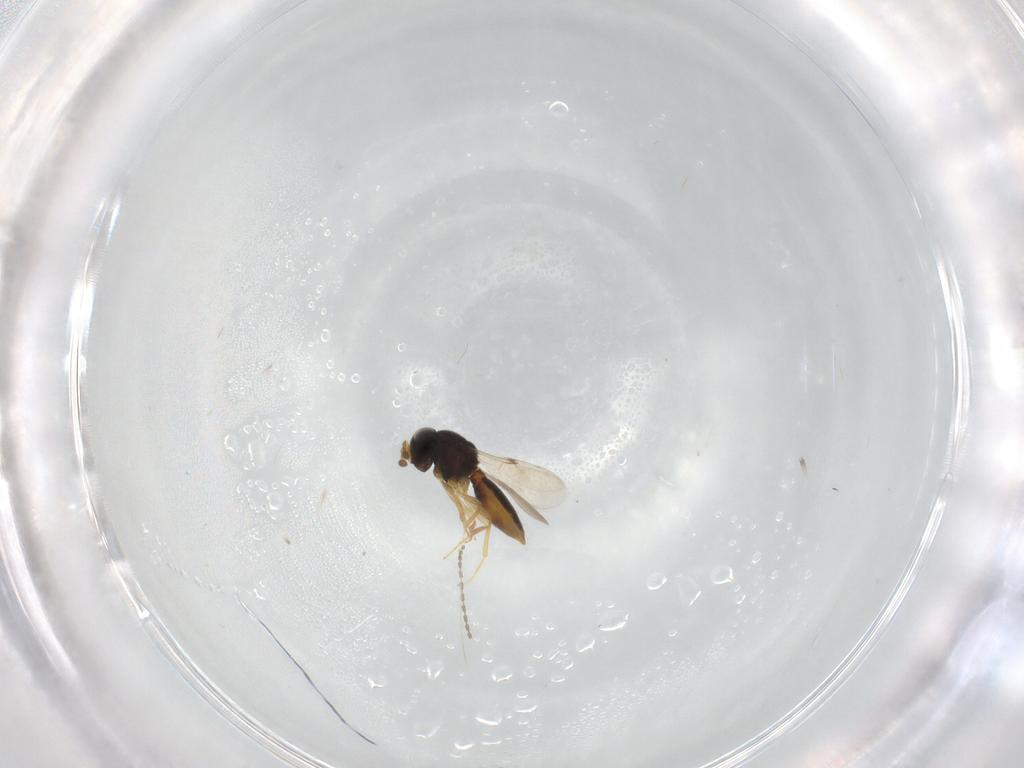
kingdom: Animalia
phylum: Arthropoda
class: Insecta
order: Hymenoptera
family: Scelionidae
